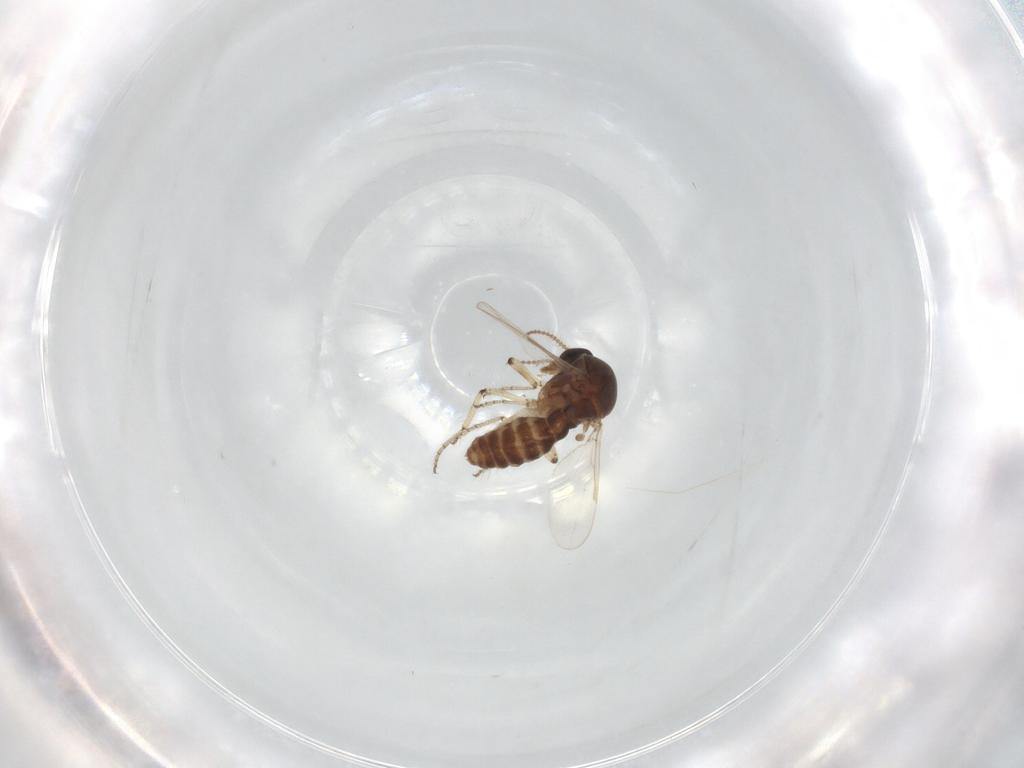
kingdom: Animalia
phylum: Arthropoda
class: Insecta
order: Diptera
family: Ceratopogonidae
